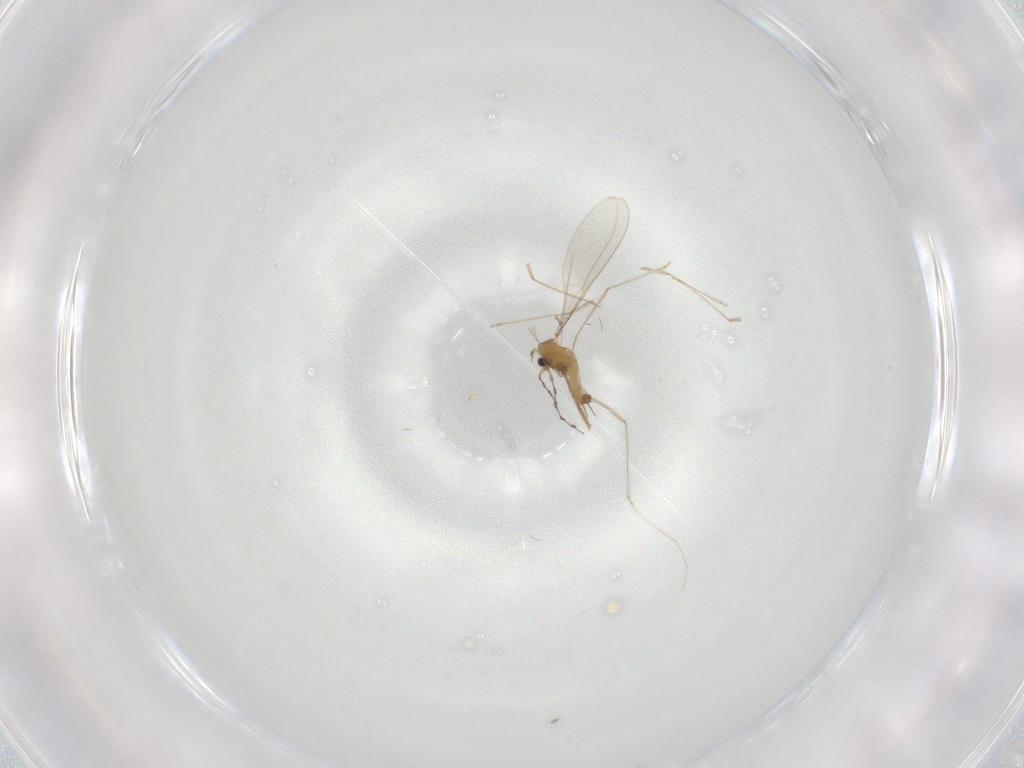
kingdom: Animalia
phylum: Arthropoda
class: Insecta
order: Diptera
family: Cecidomyiidae
